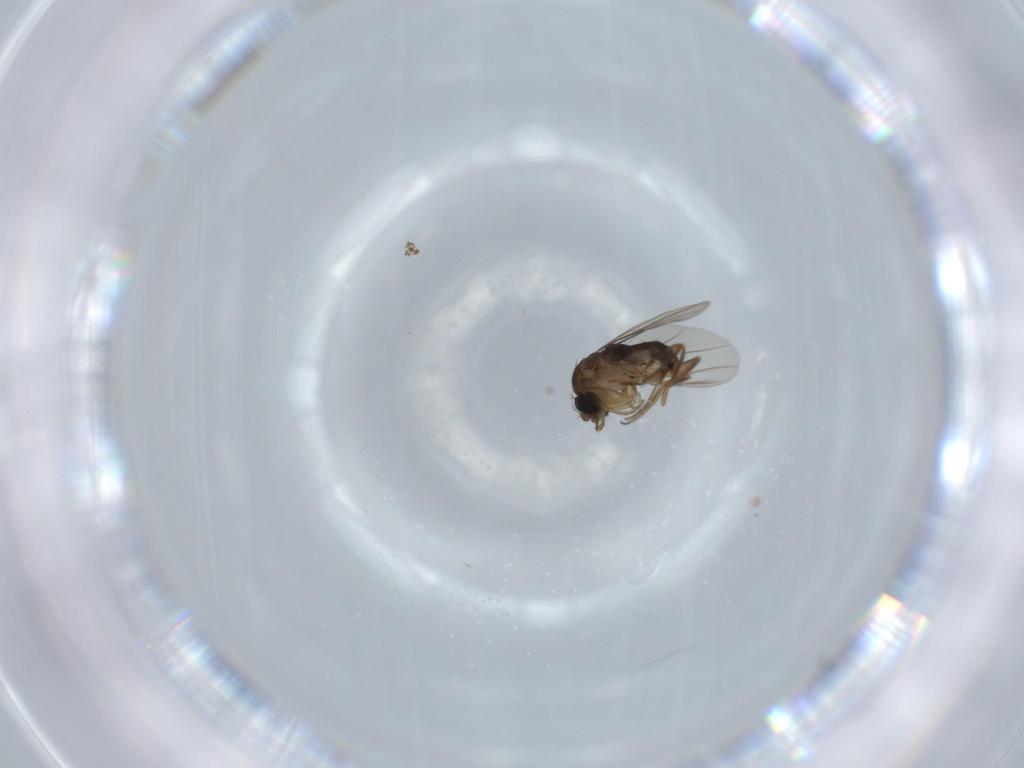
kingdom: Animalia
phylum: Arthropoda
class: Insecta
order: Diptera
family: Phoridae
